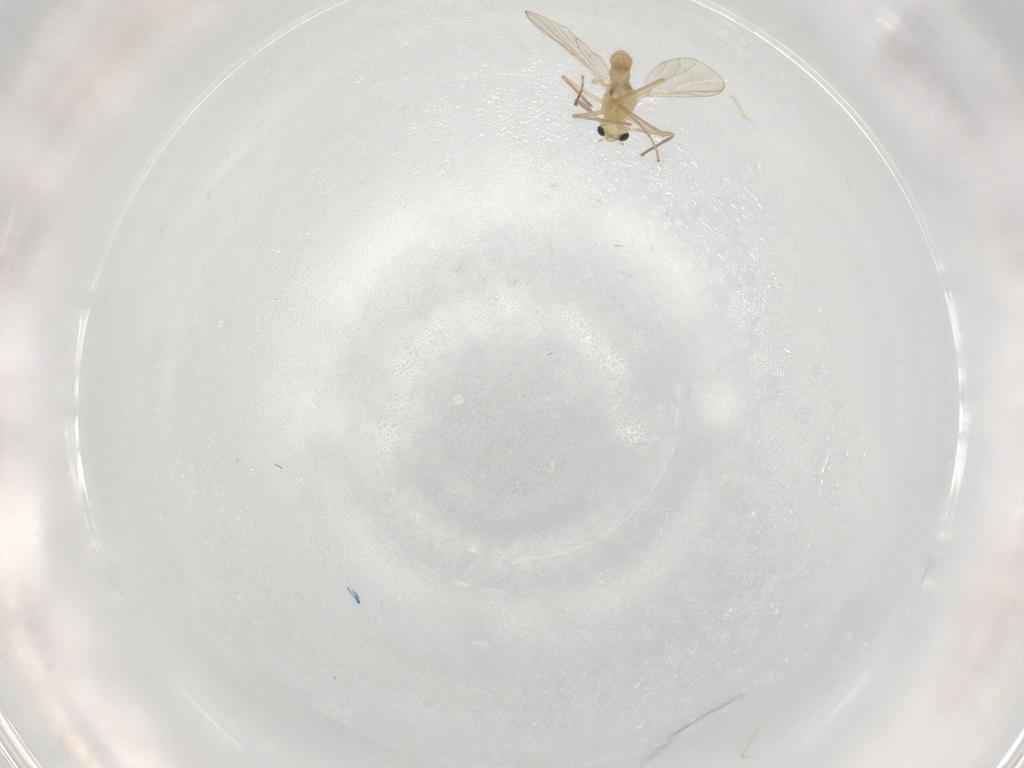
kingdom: Animalia
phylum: Arthropoda
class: Insecta
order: Diptera
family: Chironomidae
